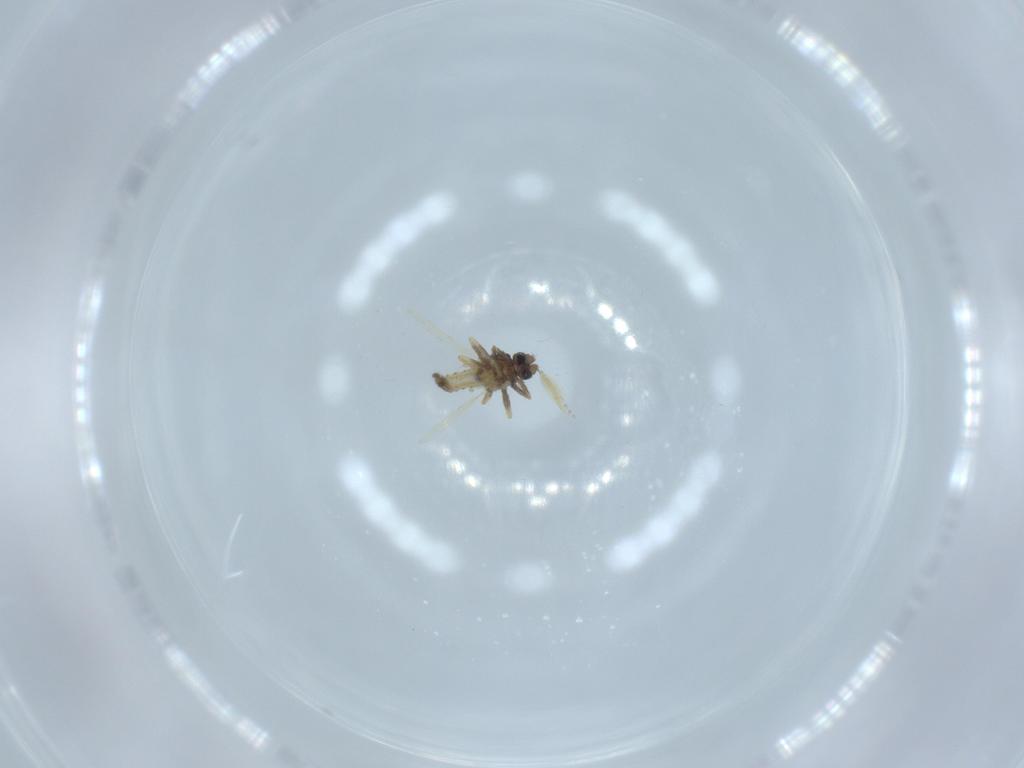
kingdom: Animalia
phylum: Arthropoda
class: Insecta
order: Diptera
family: Ceratopogonidae
